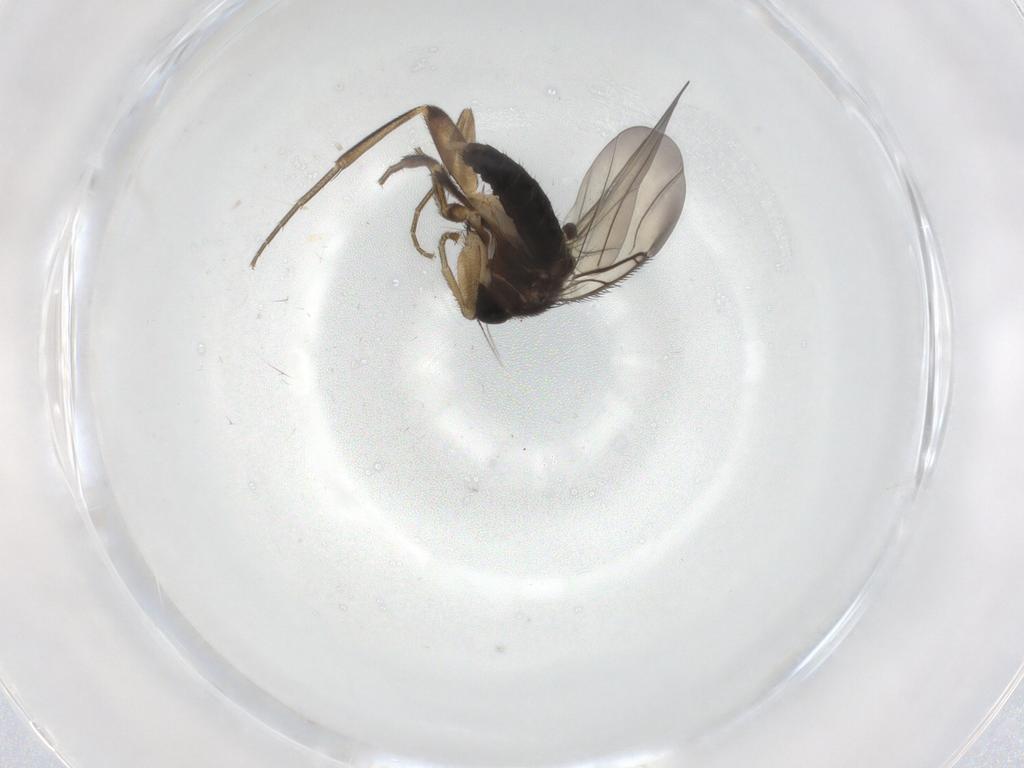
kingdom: Animalia
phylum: Arthropoda
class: Insecta
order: Diptera
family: Phoridae
